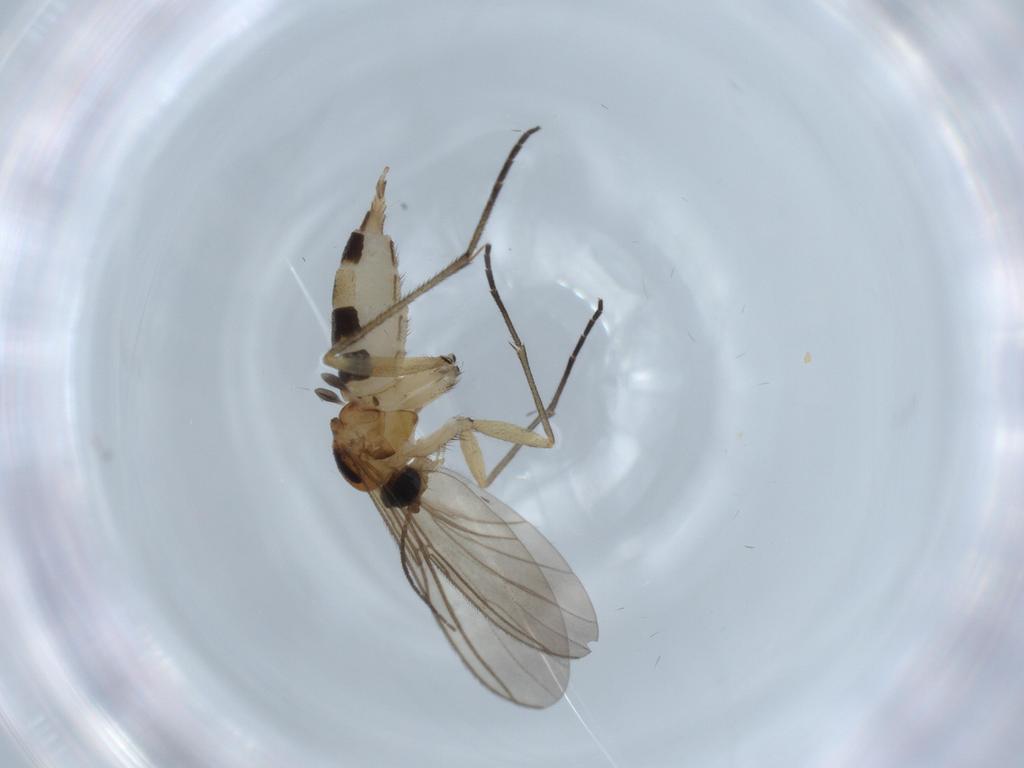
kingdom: Animalia
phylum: Arthropoda
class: Insecta
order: Diptera
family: Sciaridae
